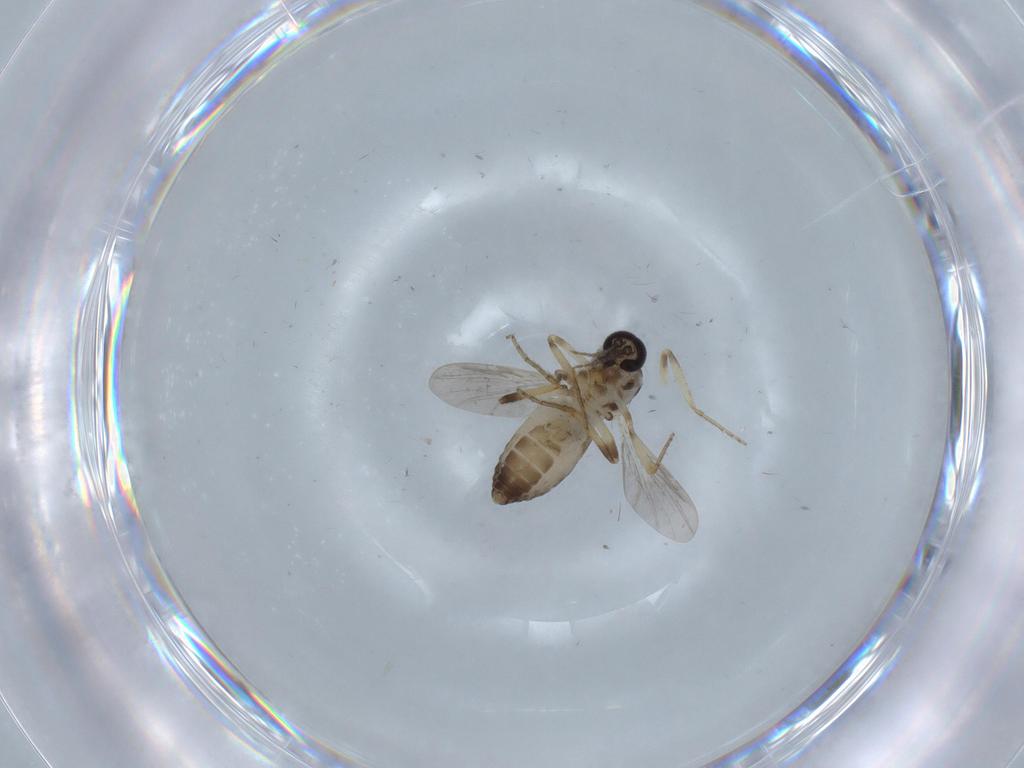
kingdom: Animalia
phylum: Arthropoda
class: Insecta
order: Diptera
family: Ceratopogonidae
